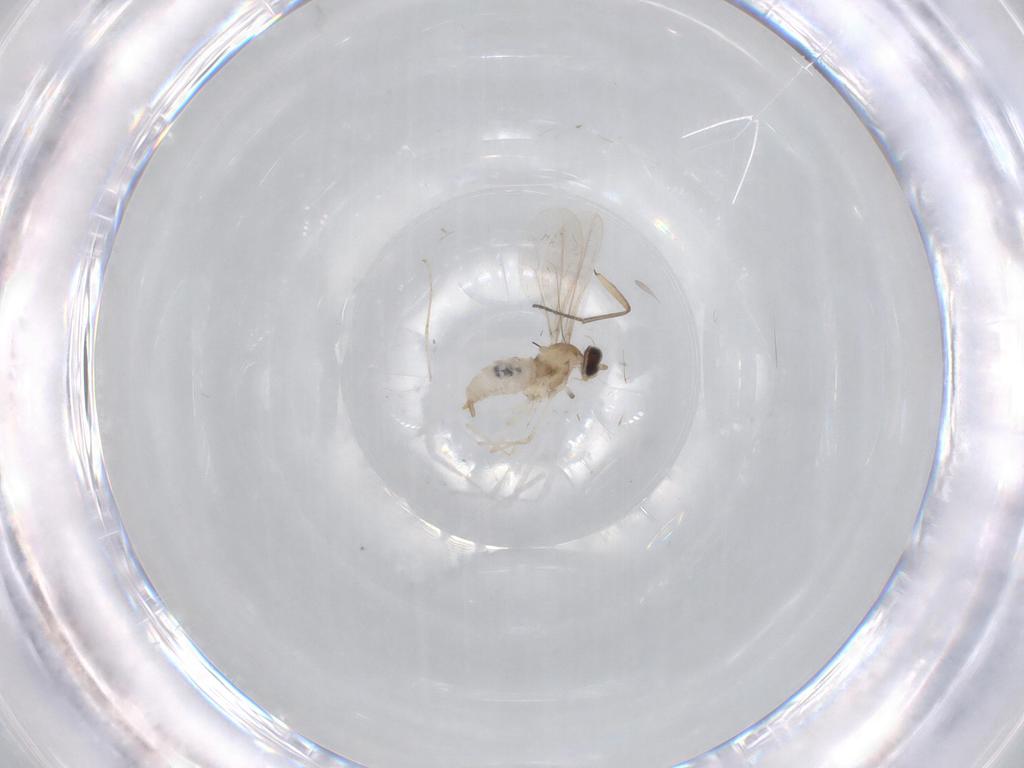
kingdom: Animalia
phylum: Arthropoda
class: Insecta
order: Diptera
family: Cecidomyiidae
